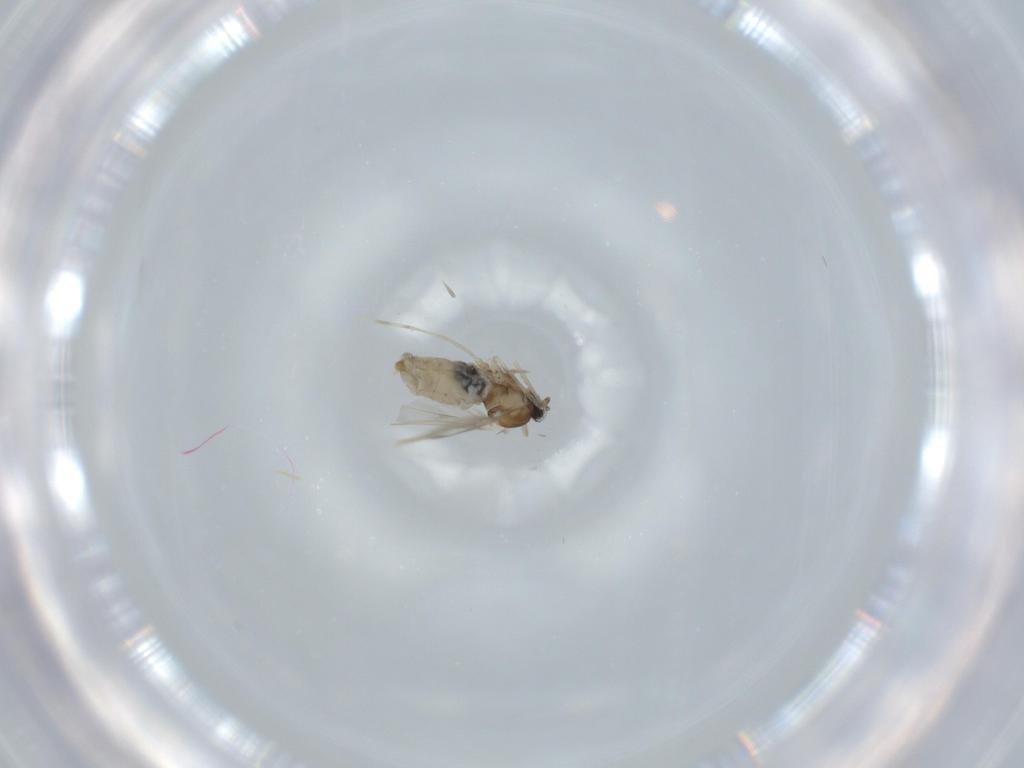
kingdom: Animalia
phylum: Arthropoda
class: Insecta
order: Diptera
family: Cecidomyiidae
